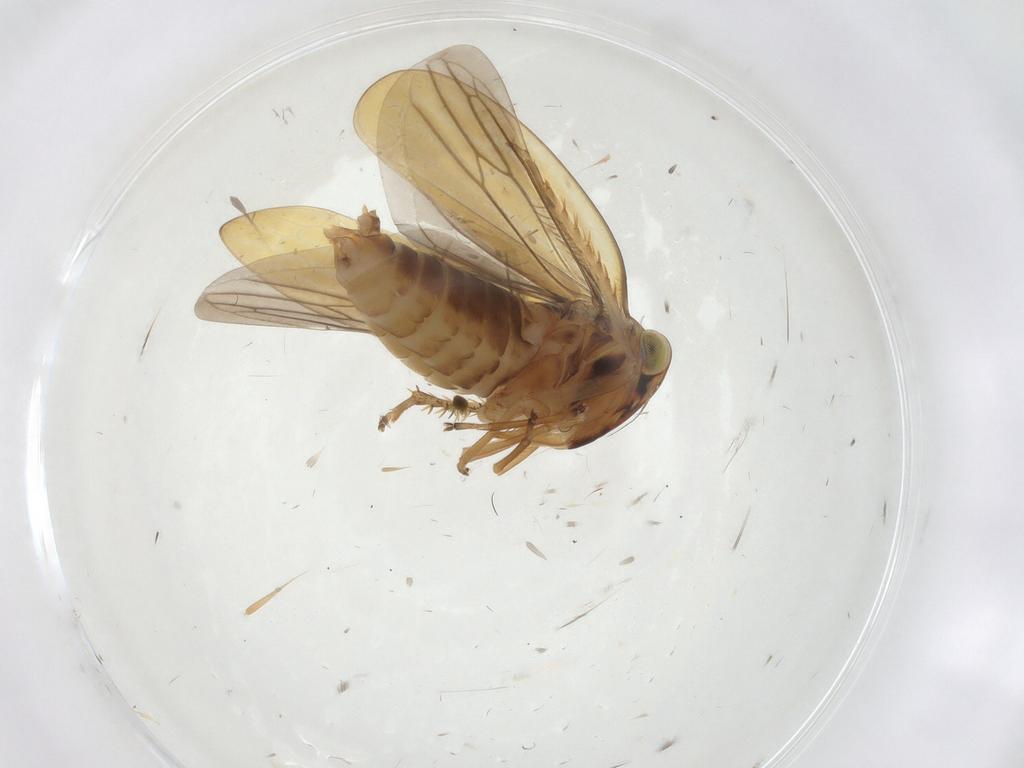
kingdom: Animalia
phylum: Arthropoda
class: Insecta
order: Hemiptera
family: Cicadellidae
